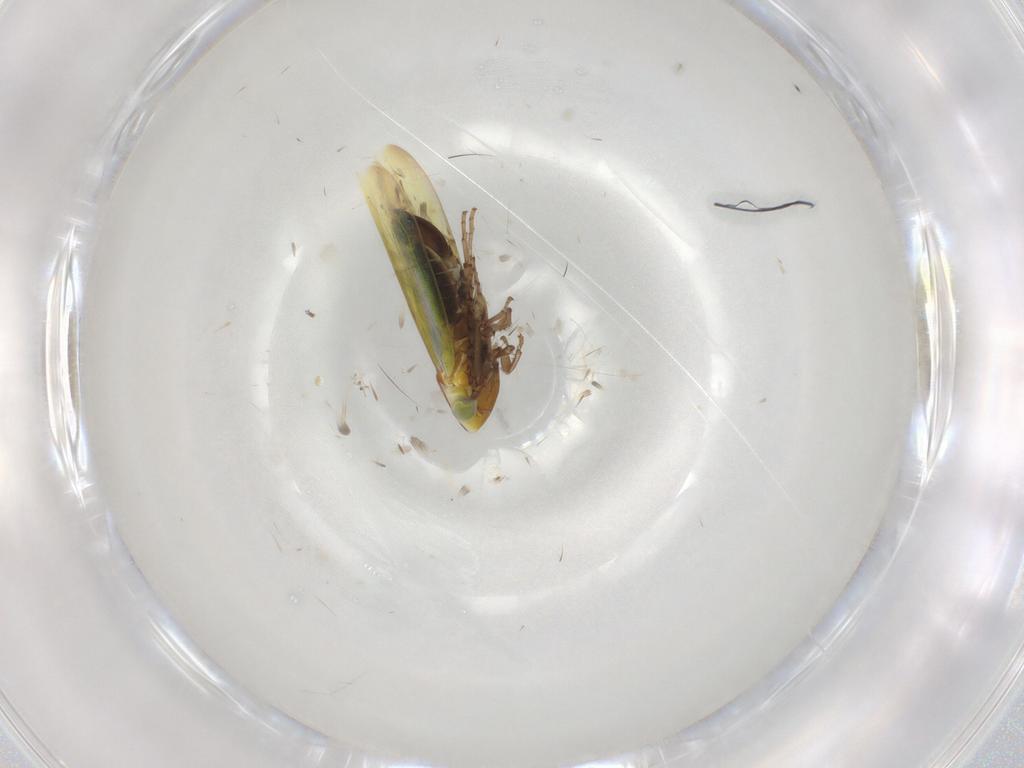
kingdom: Animalia
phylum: Arthropoda
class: Insecta
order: Hemiptera
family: Cicadellidae
